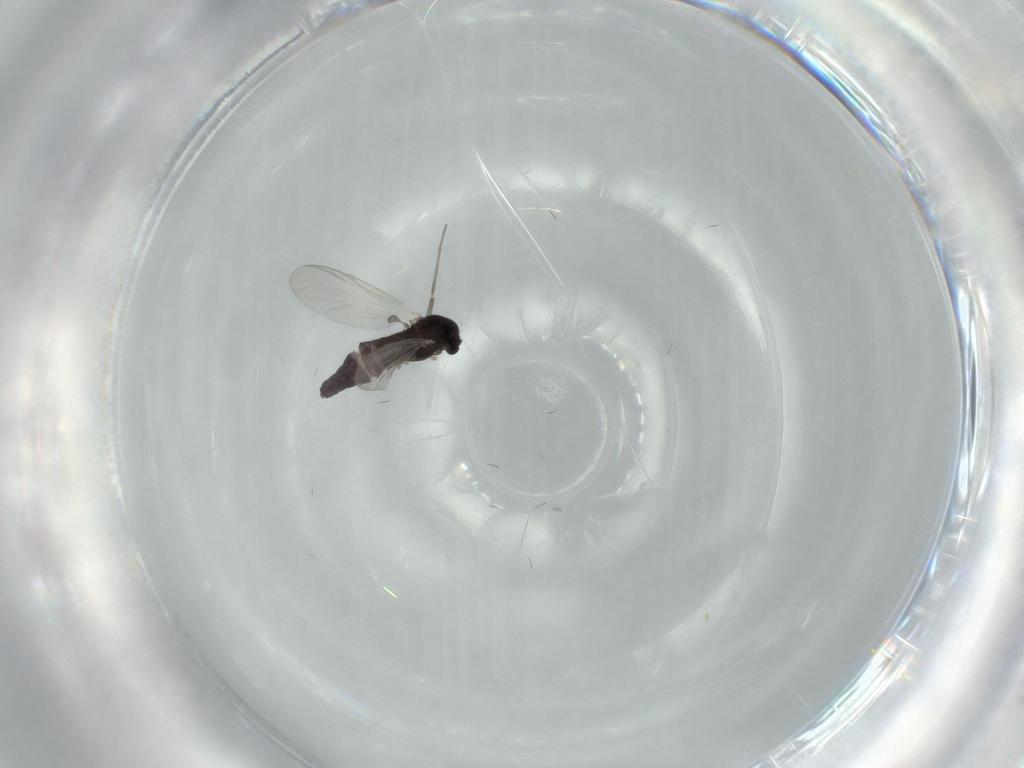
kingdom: Animalia
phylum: Arthropoda
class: Insecta
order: Diptera
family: Chironomidae
